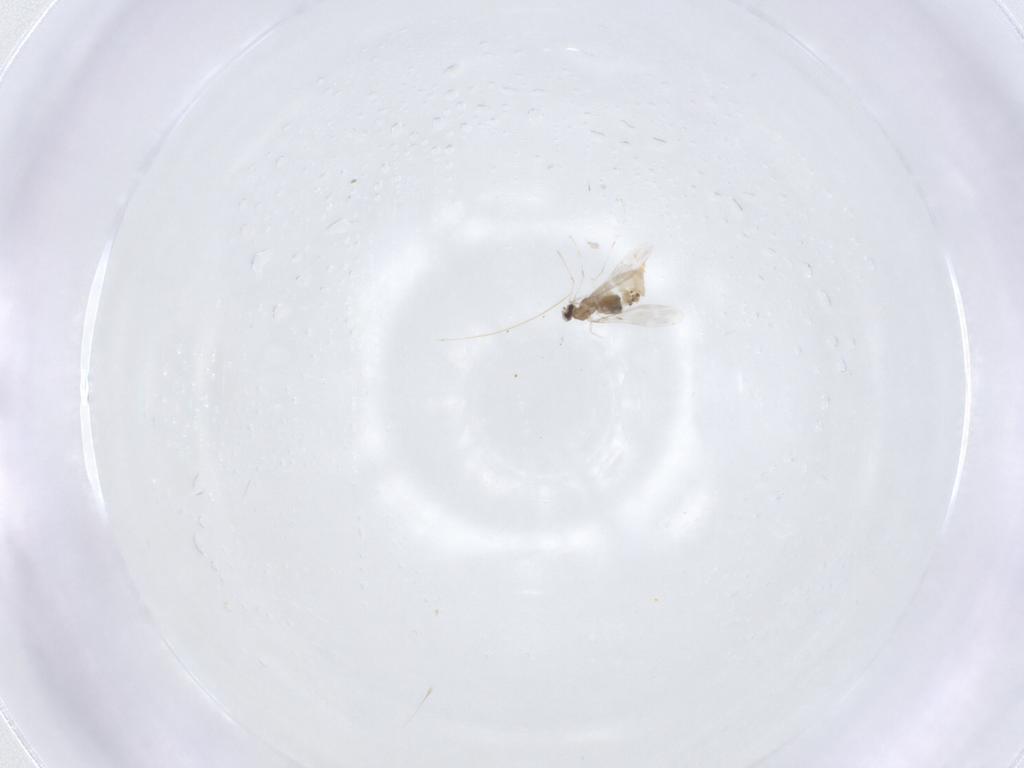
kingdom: Animalia
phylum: Arthropoda
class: Insecta
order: Diptera
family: Cecidomyiidae
